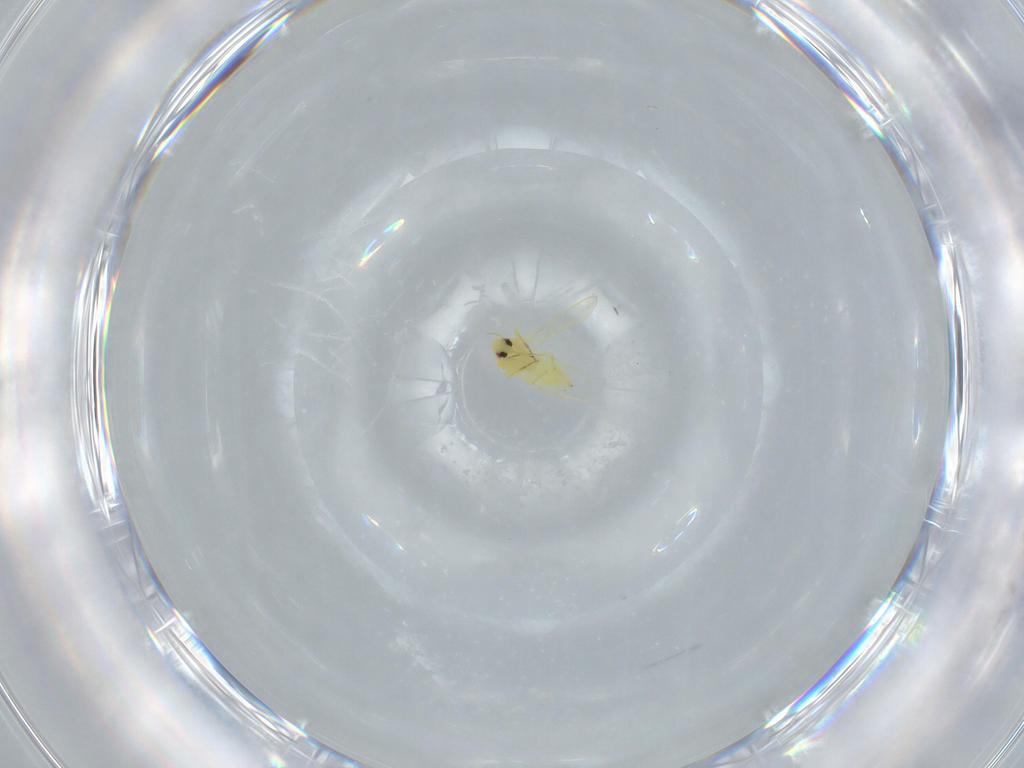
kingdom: Animalia
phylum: Arthropoda
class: Insecta
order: Hemiptera
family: Aleyrodidae
